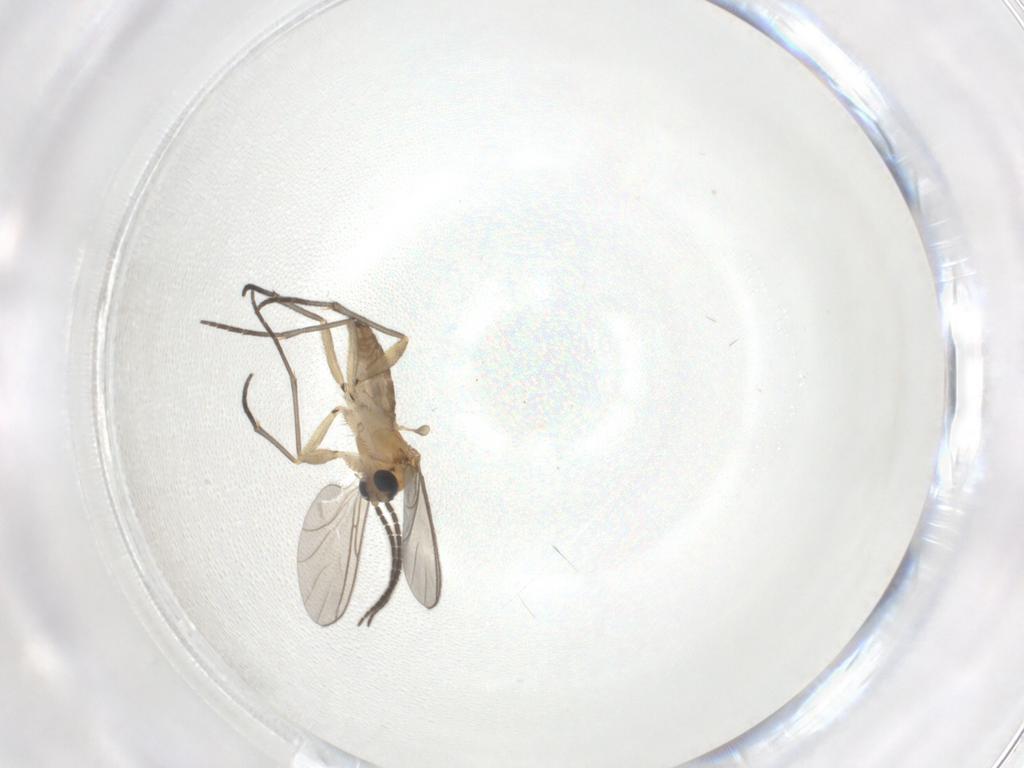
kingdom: Animalia
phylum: Arthropoda
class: Insecta
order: Diptera
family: Sciaridae
